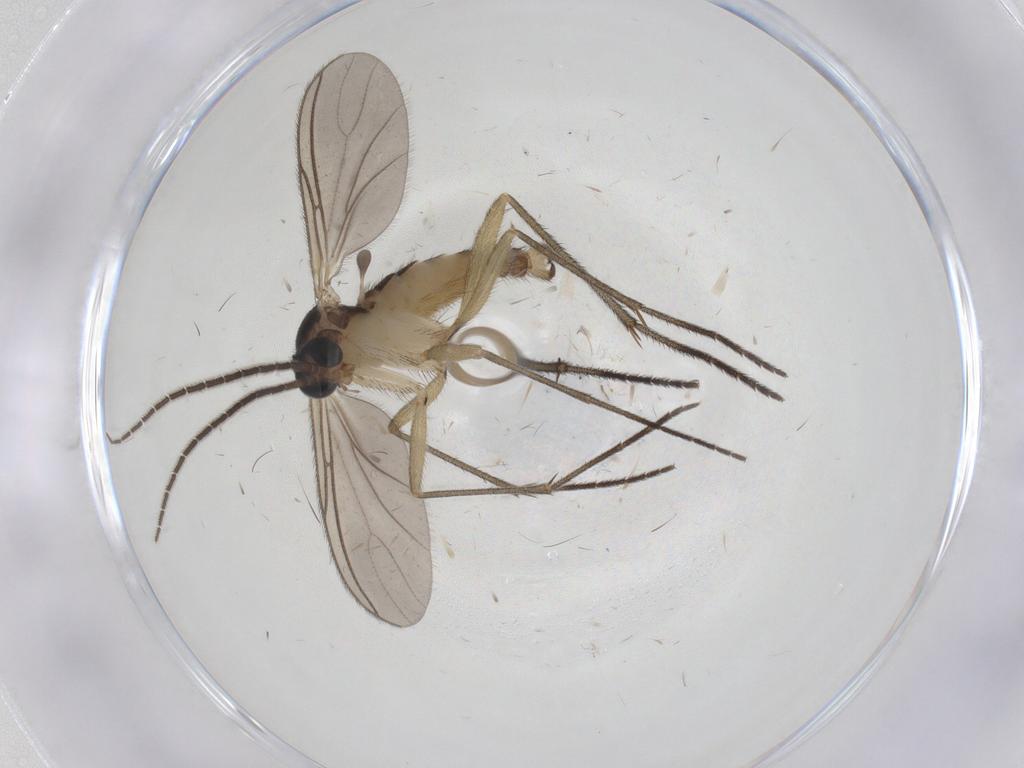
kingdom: Animalia
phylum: Arthropoda
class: Insecta
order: Diptera
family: Sciaridae
